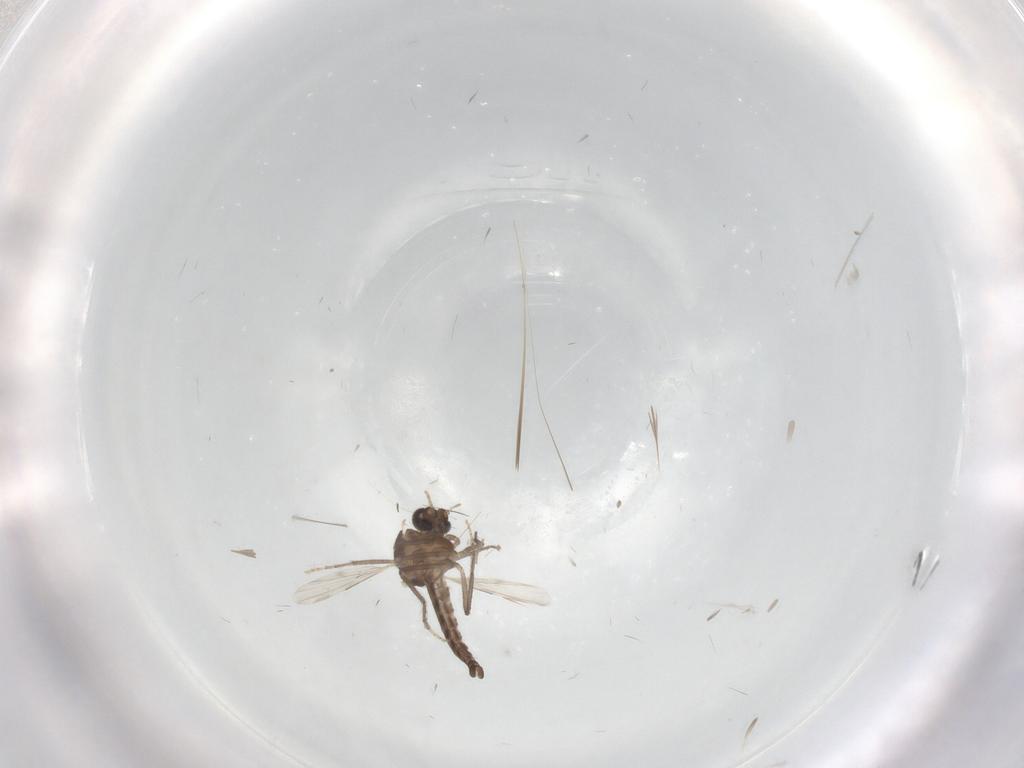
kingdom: Animalia
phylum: Arthropoda
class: Insecta
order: Diptera
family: Ceratopogonidae
